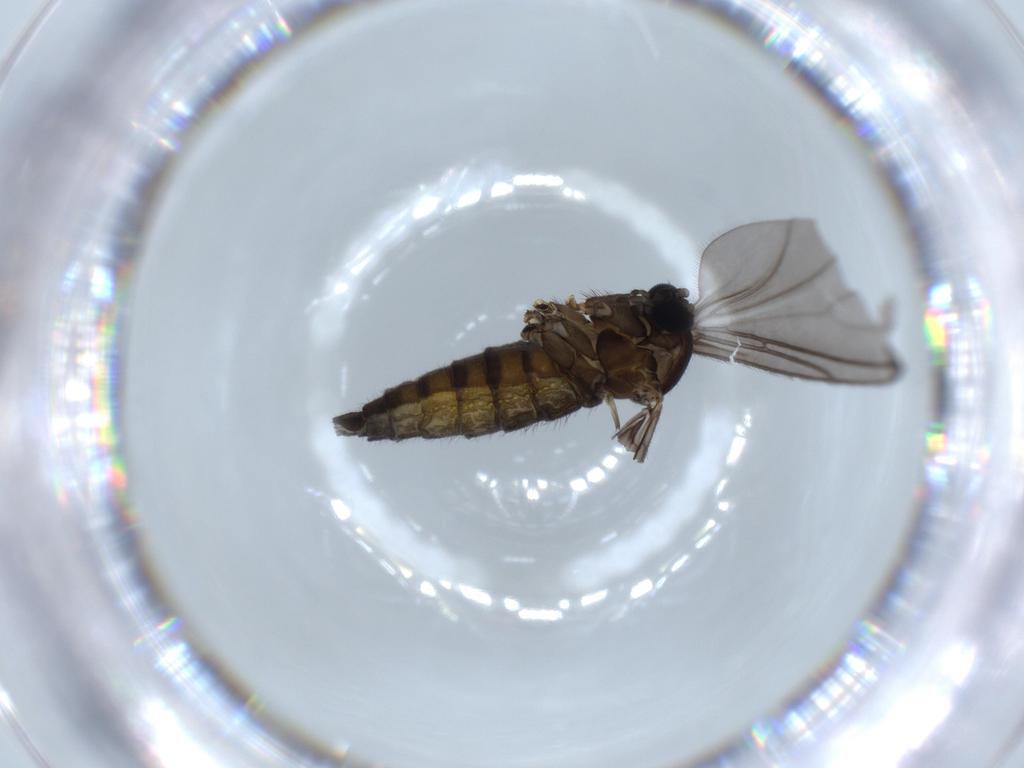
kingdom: Animalia
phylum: Arthropoda
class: Insecta
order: Diptera
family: Sciaridae
